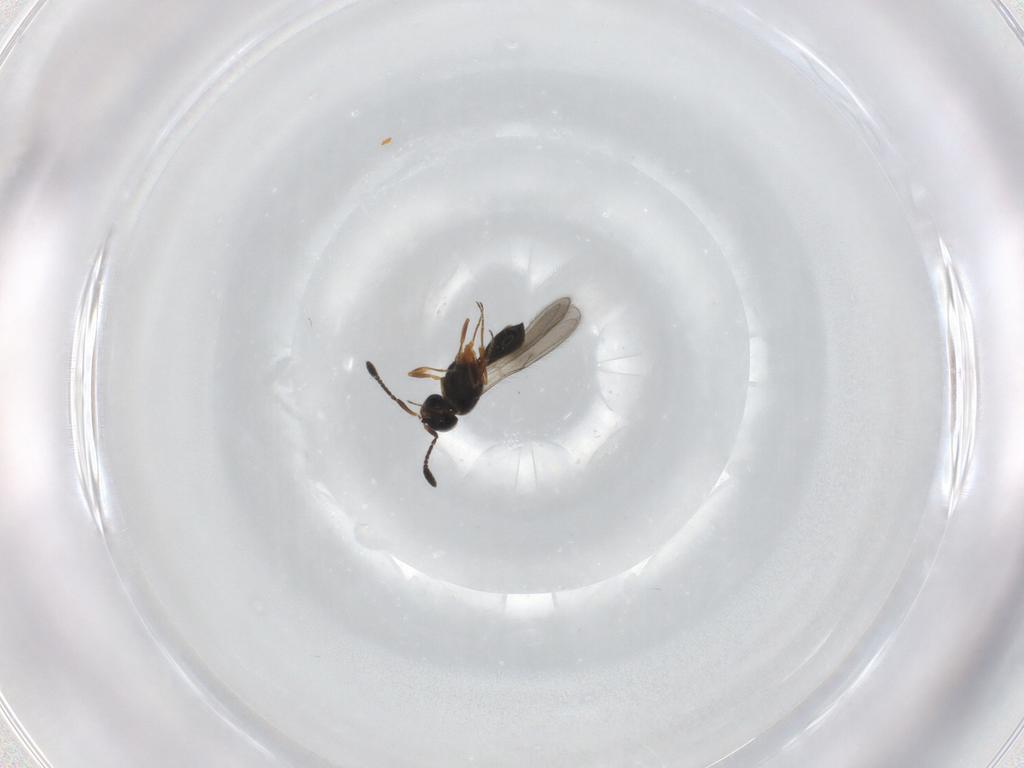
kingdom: Animalia
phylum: Arthropoda
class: Insecta
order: Hymenoptera
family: Scelionidae
